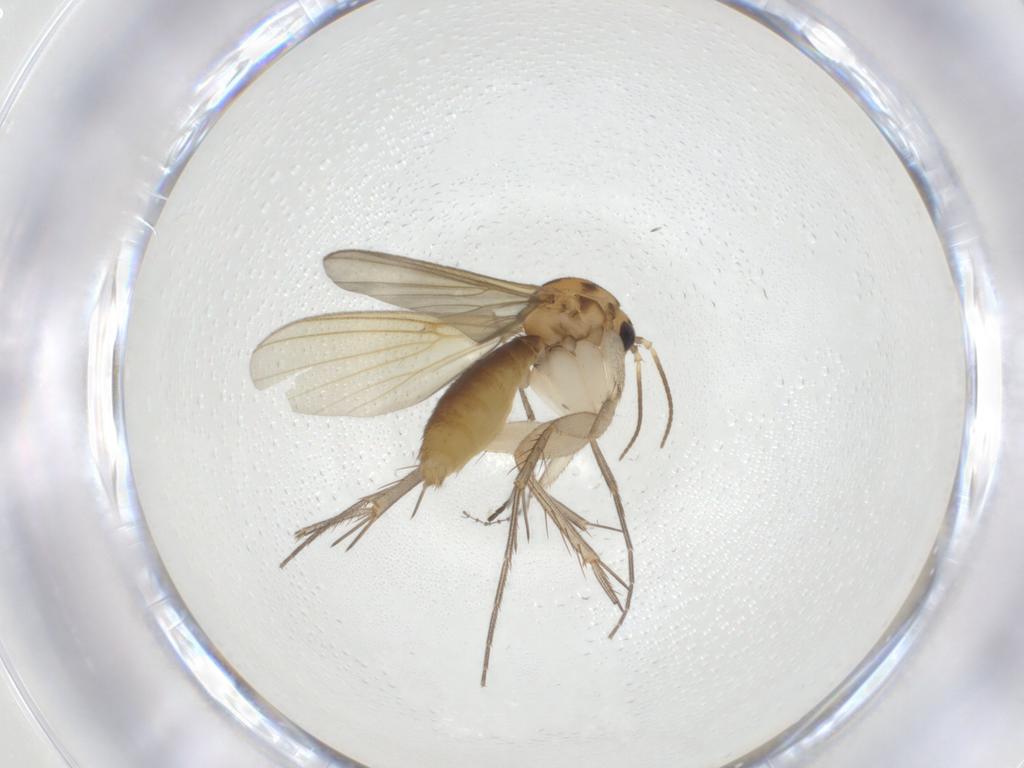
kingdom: Animalia
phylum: Arthropoda
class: Insecta
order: Diptera
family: Mycetophilidae
